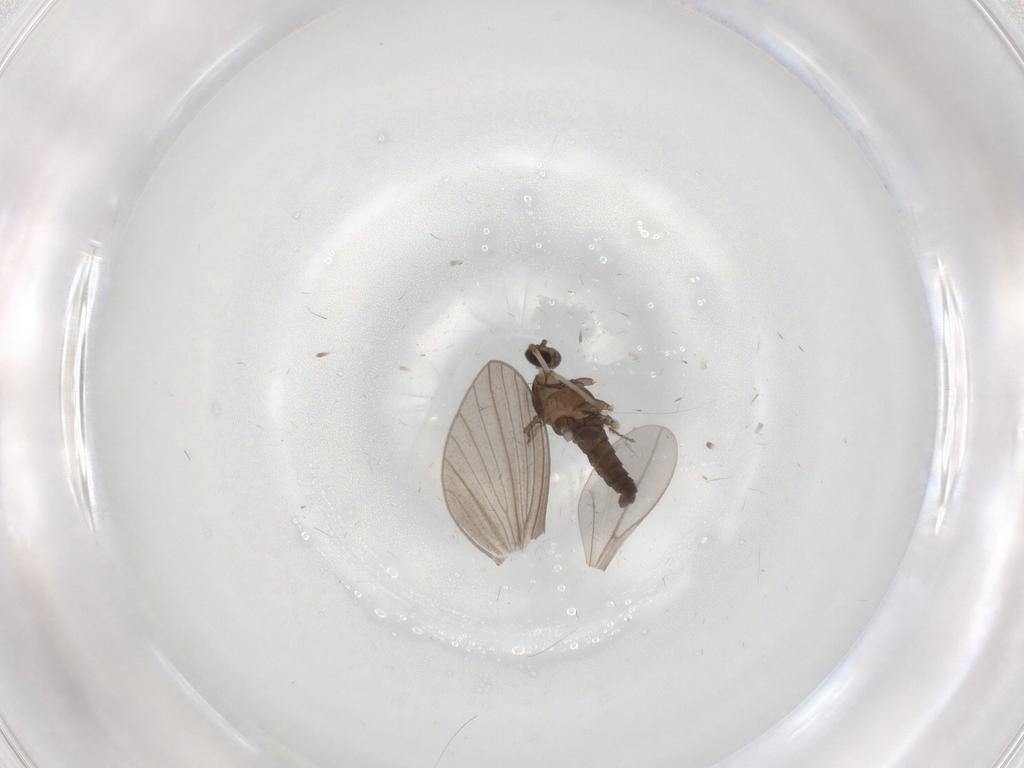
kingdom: Animalia
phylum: Arthropoda
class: Insecta
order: Diptera
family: Cecidomyiidae
